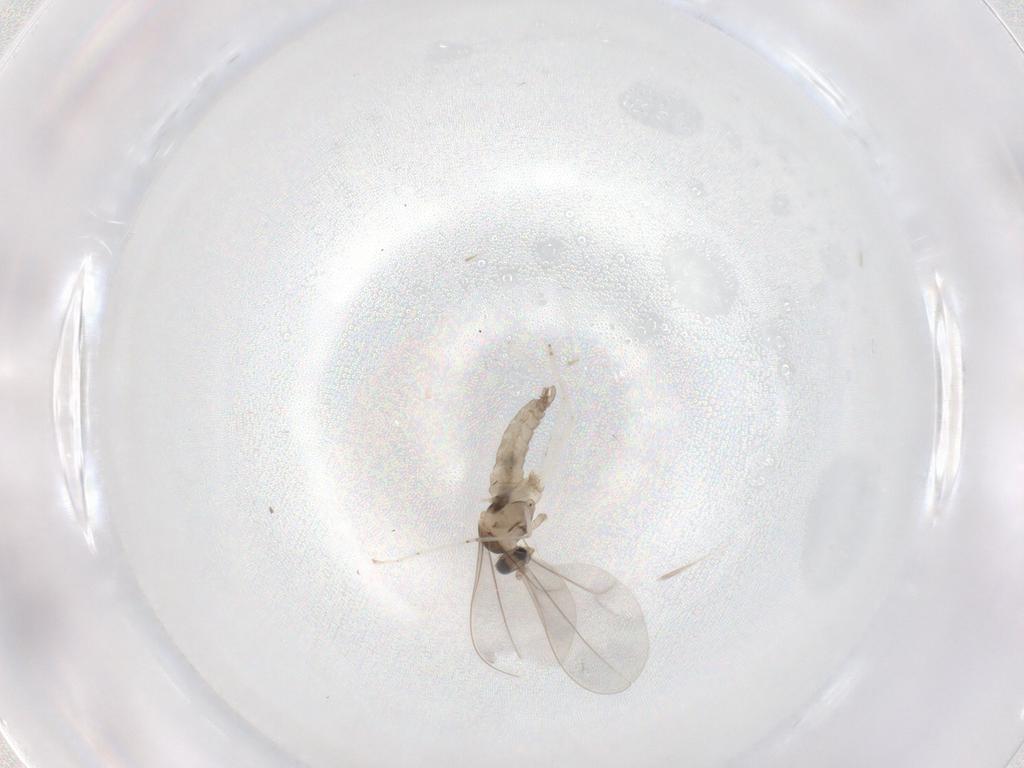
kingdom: Animalia
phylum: Arthropoda
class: Insecta
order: Diptera
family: Cecidomyiidae
